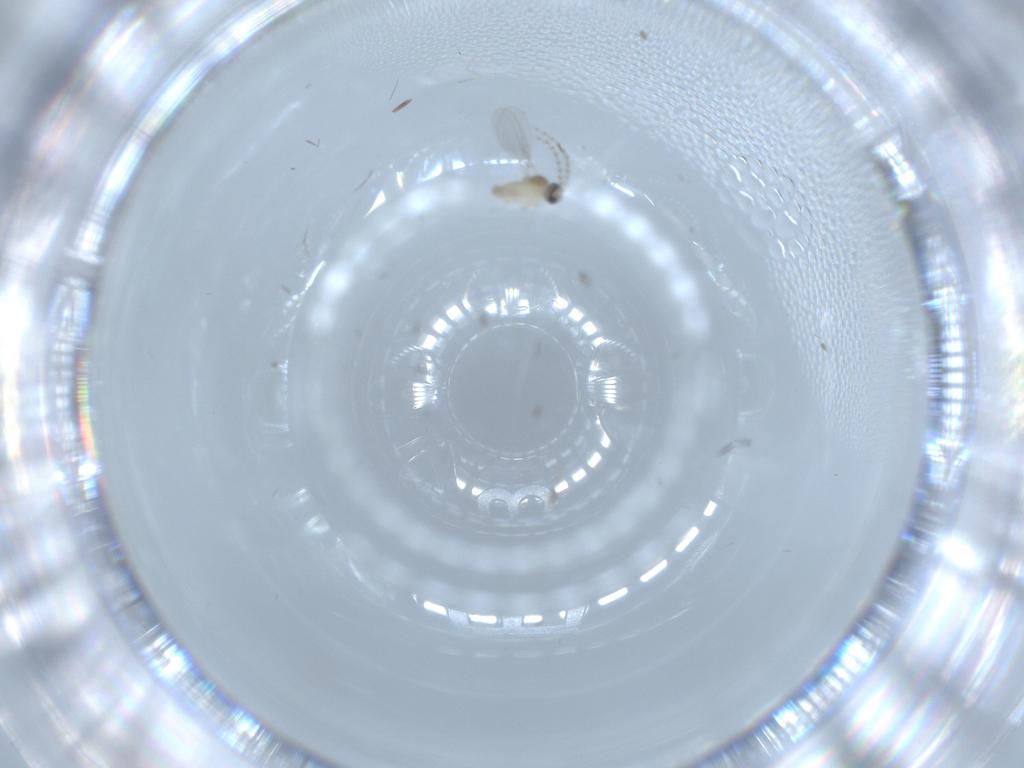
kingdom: Animalia
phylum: Arthropoda
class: Insecta
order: Diptera
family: Cecidomyiidae
